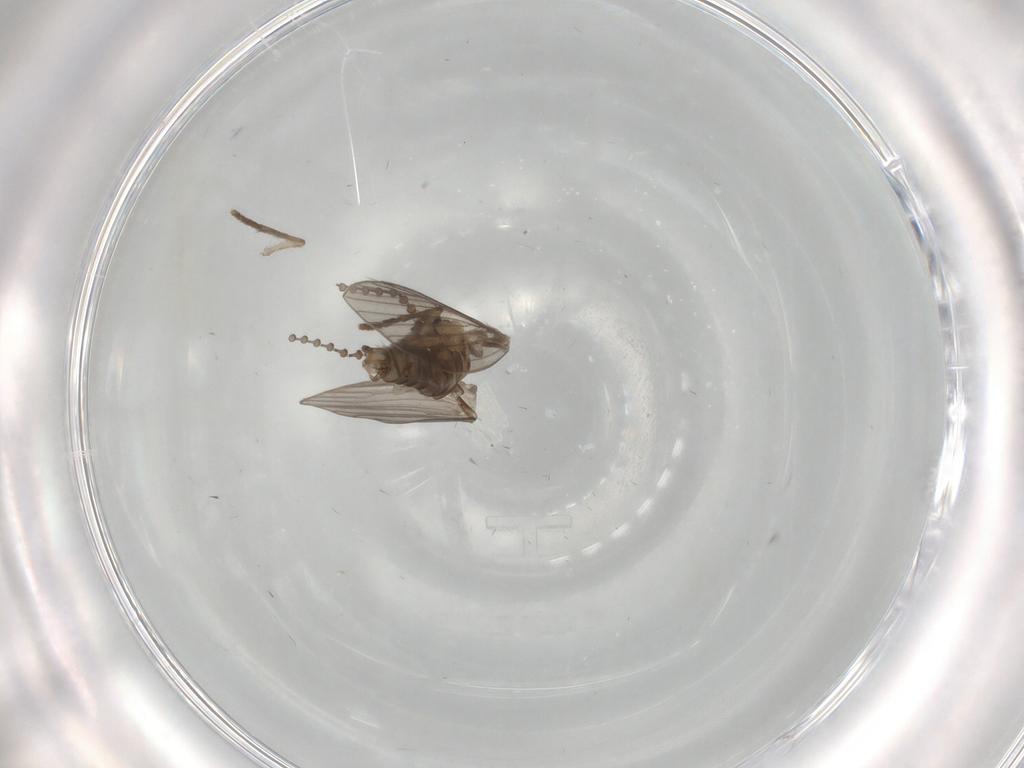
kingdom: Animalia
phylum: Arthropoda
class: Insecta
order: Diptera
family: Psychodidae
